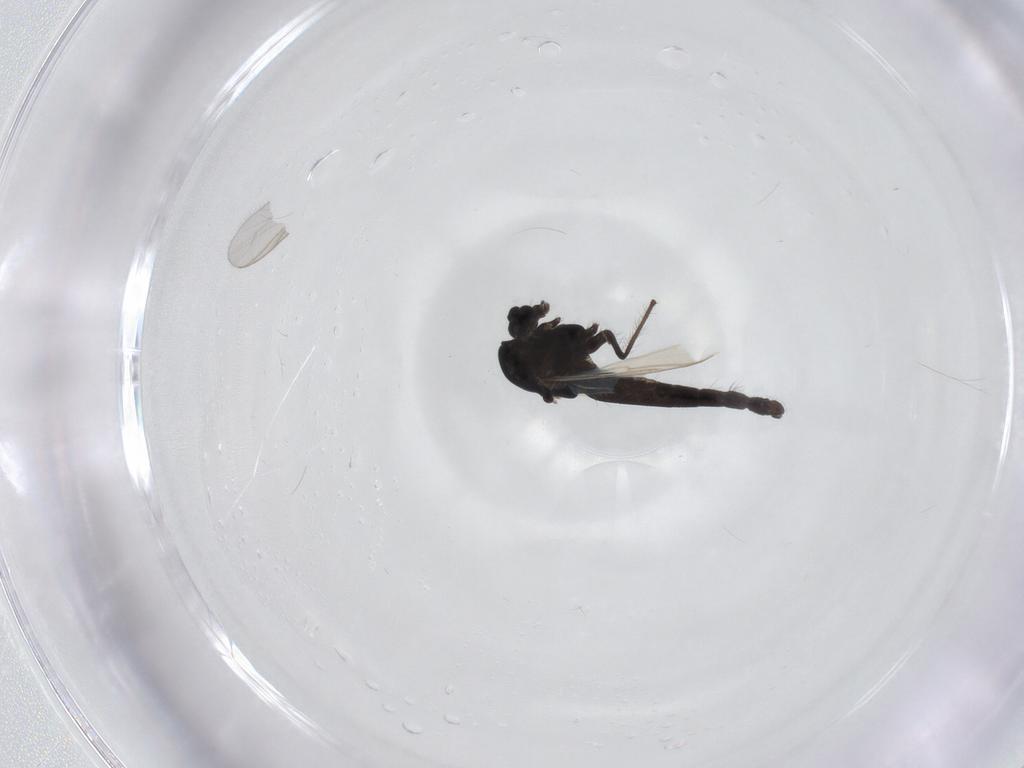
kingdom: Animalia
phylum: Arthropoda
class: Insecta
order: Diptera
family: Chironomidae
